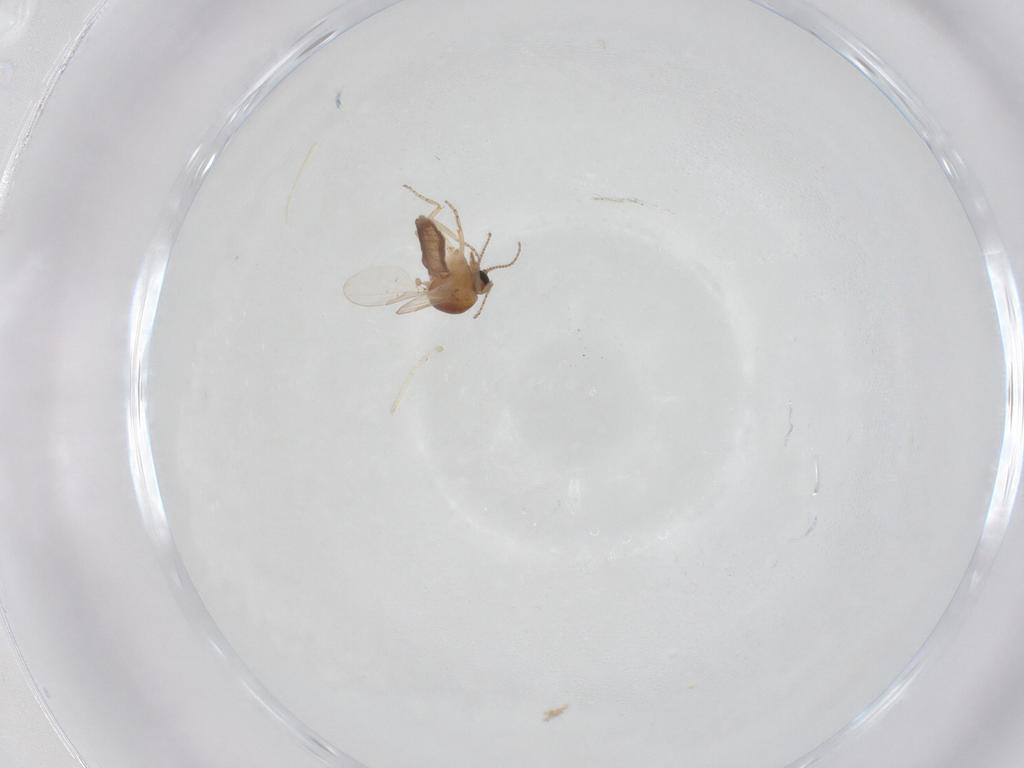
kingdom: Animalia
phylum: Arthropoda
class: Insecta
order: Diptera
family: Ceratopogonidae
